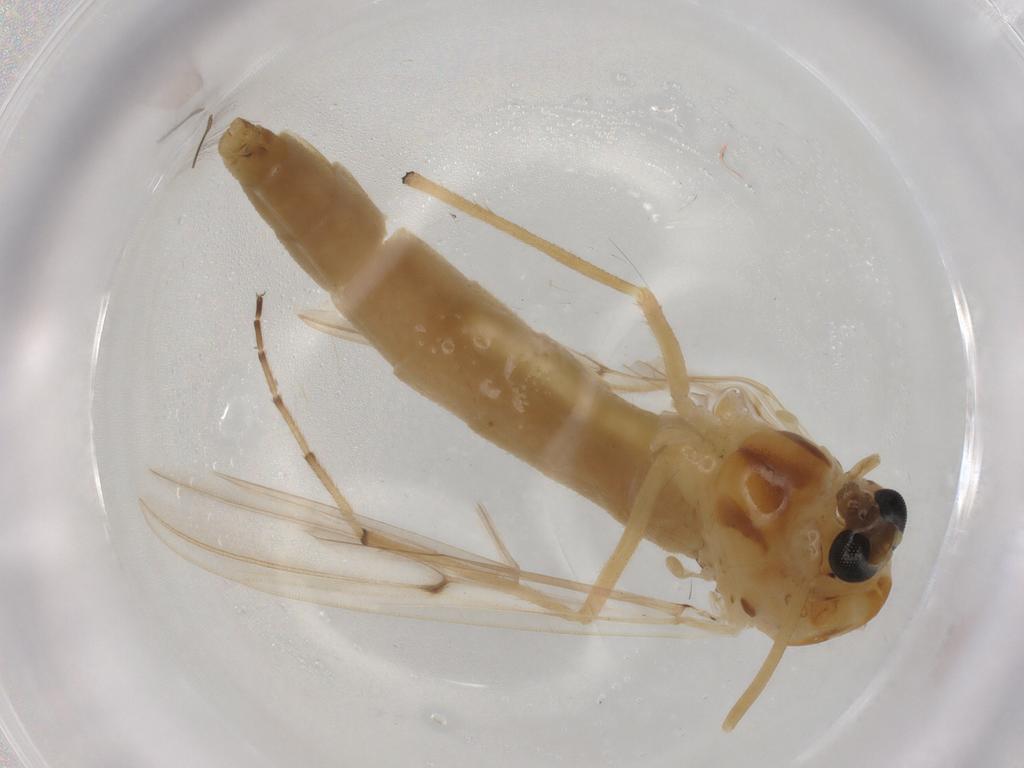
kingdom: Animalia
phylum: Arthropoda
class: Insecta
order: Diptera
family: Chironomidae
